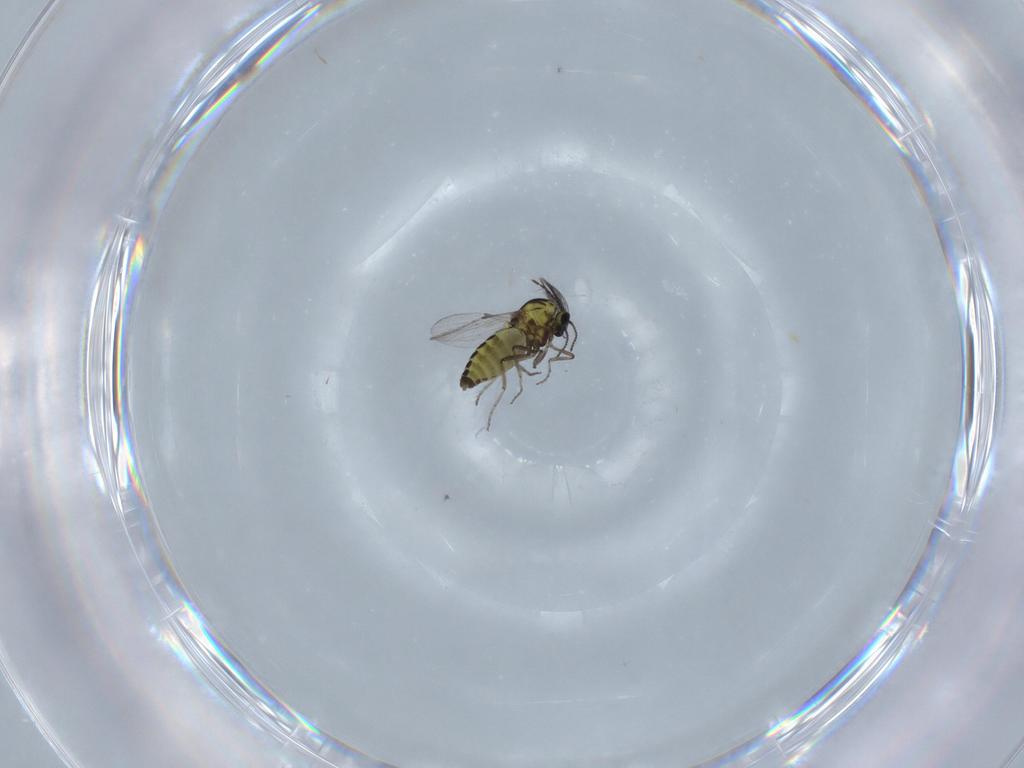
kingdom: Animalia
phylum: Arthropoda
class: Insecta
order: Diptera
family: Ceratopogonidae
